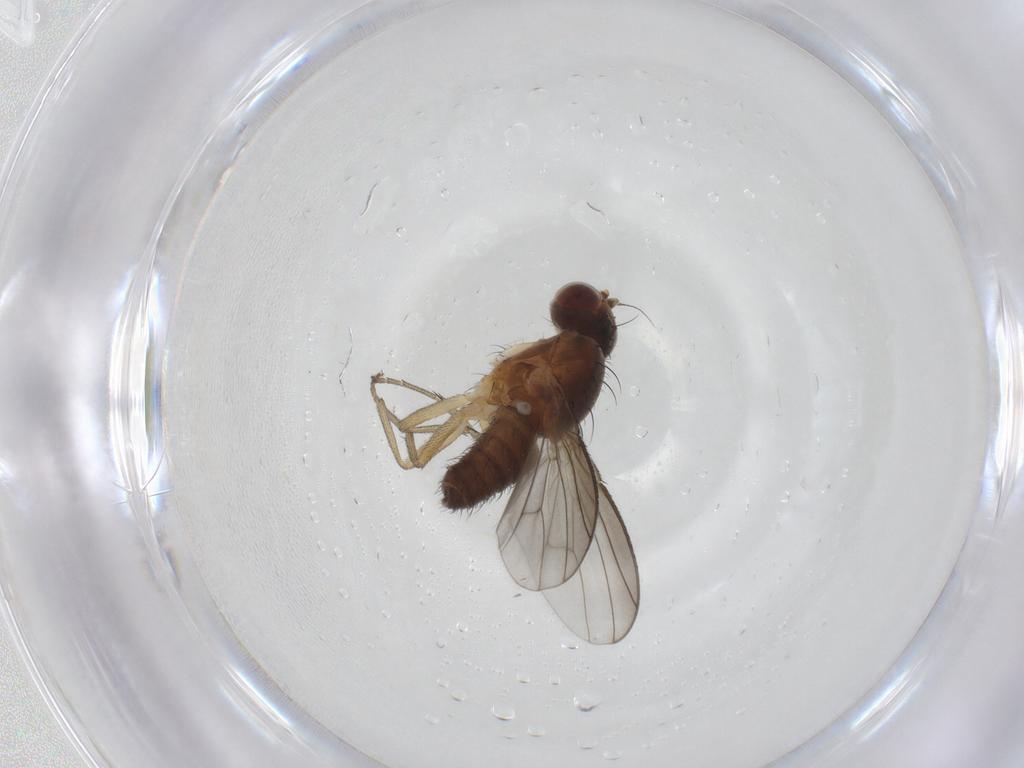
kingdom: Animalia
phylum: Arthropoda
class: Insecta
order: Diptera
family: Heleomyzidae
